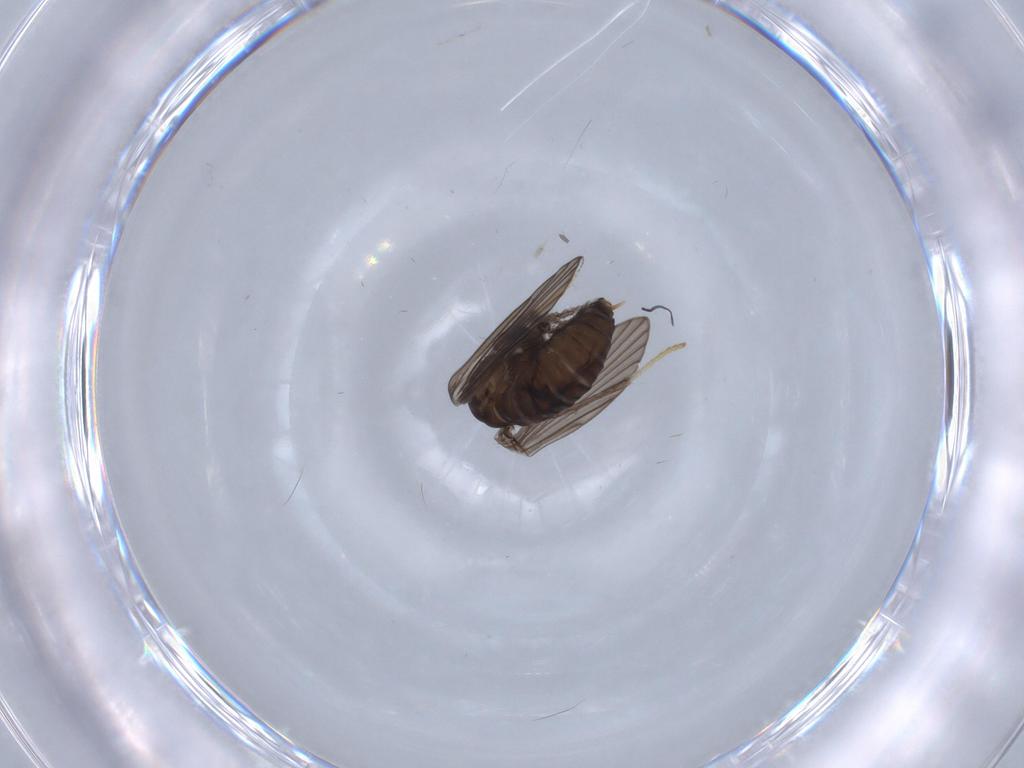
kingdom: Animalia
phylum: Arthropoda
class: Insecta
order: Diptera
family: Psychodidae
